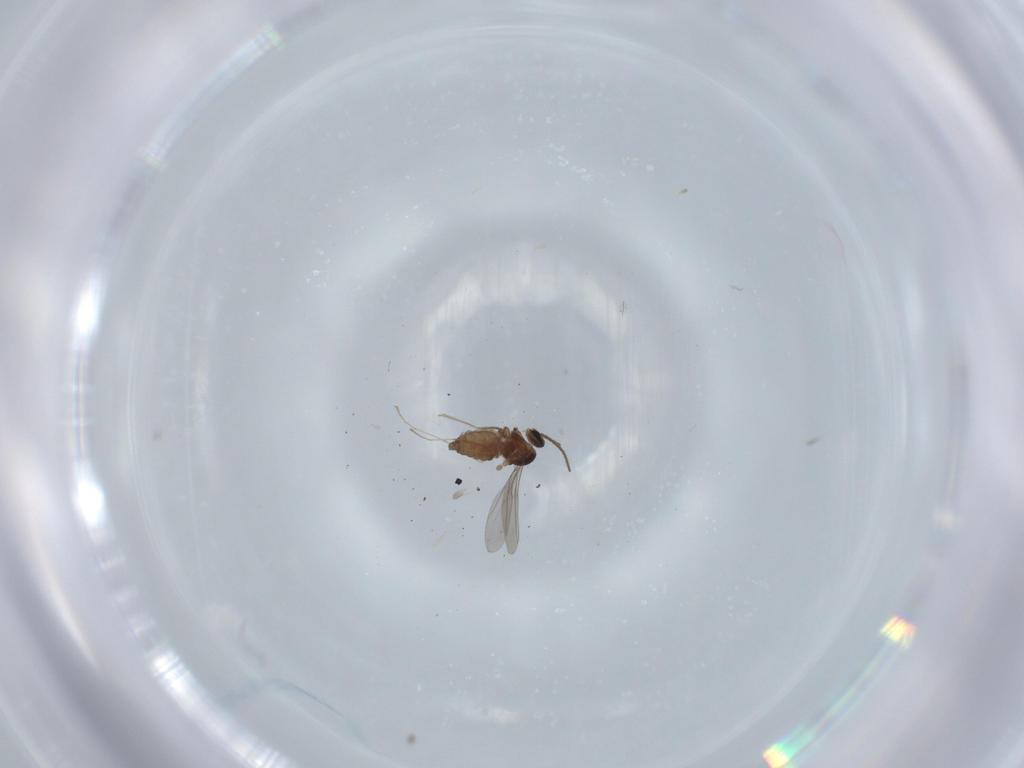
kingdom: Animalia
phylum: Arthropoda
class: Insecta
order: Diptera
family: Cecidomyiidae
